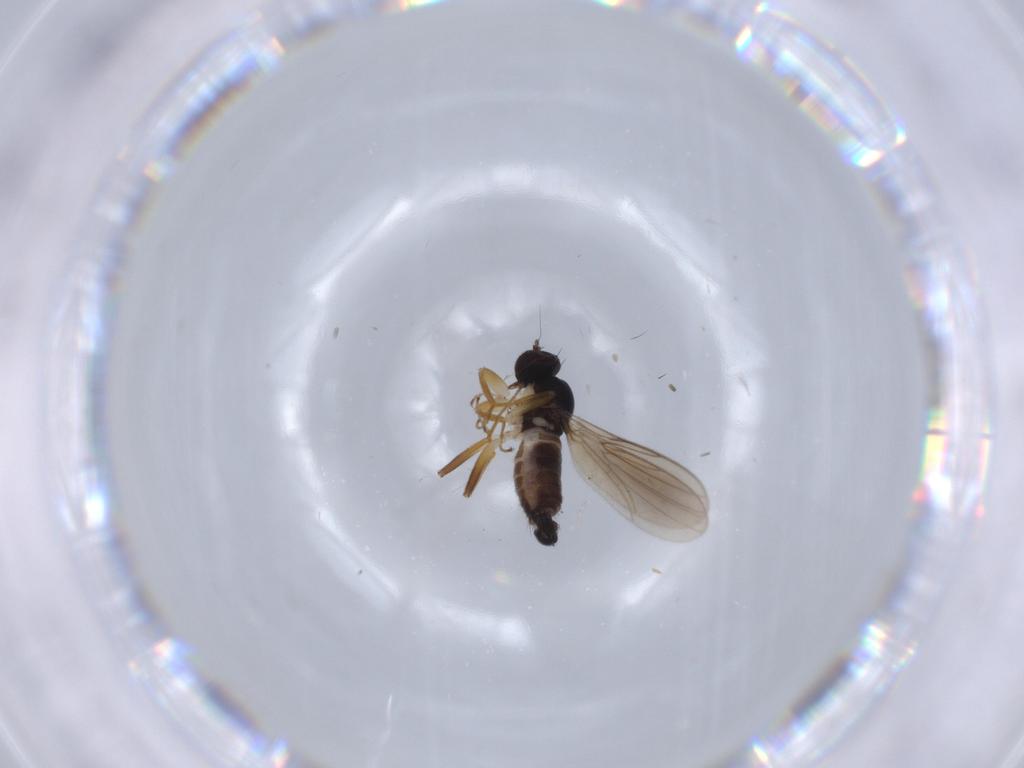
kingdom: Animalia
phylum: Arthropoda
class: Insecta
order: Diptera
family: Hybotidae
